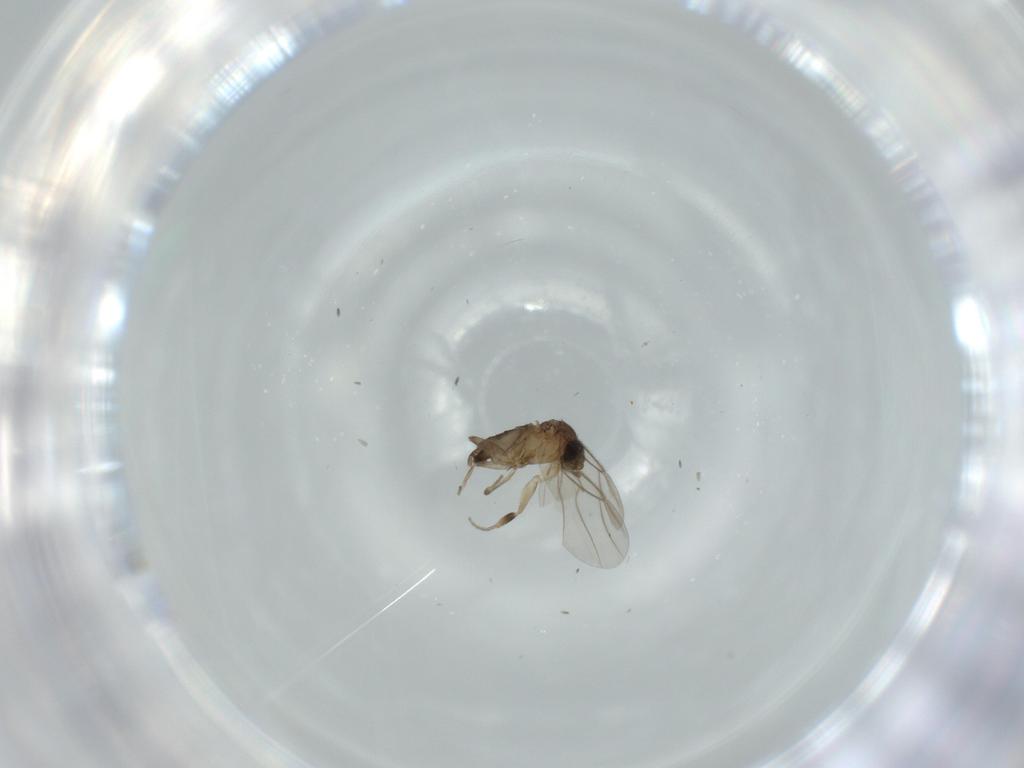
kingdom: Animalia
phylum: Arthropoda
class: Insecta
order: Diptera
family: Phoridae
